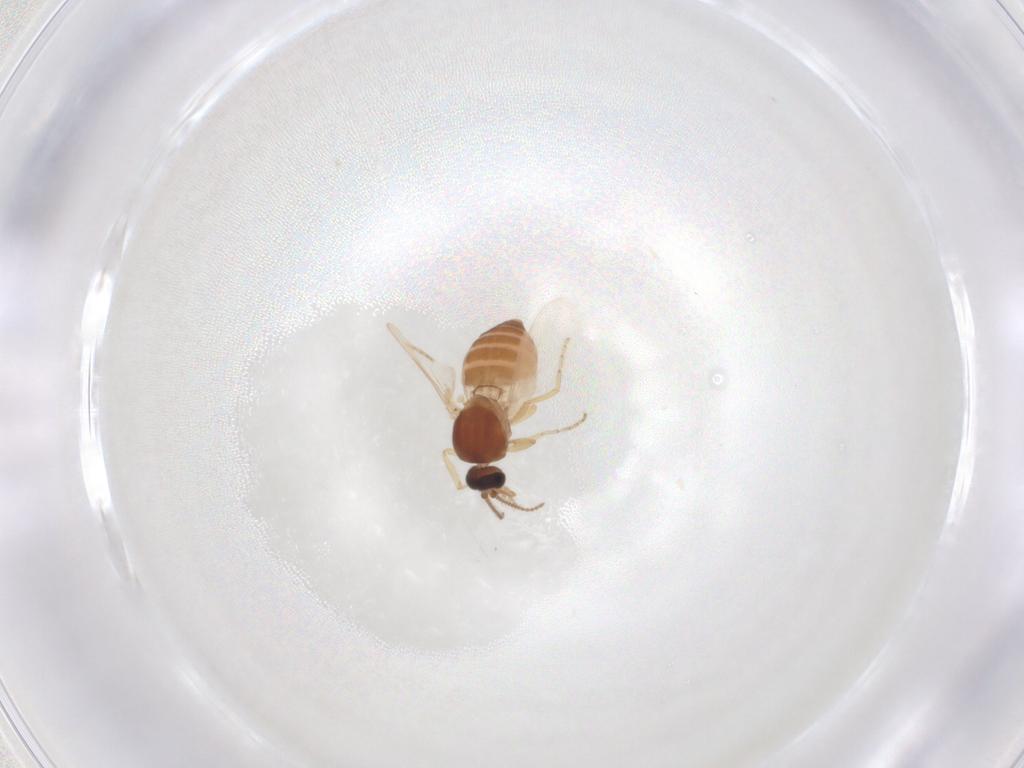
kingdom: Animalia
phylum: Arthropoda
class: Insecta
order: Diptera
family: Ceratopogonidae
